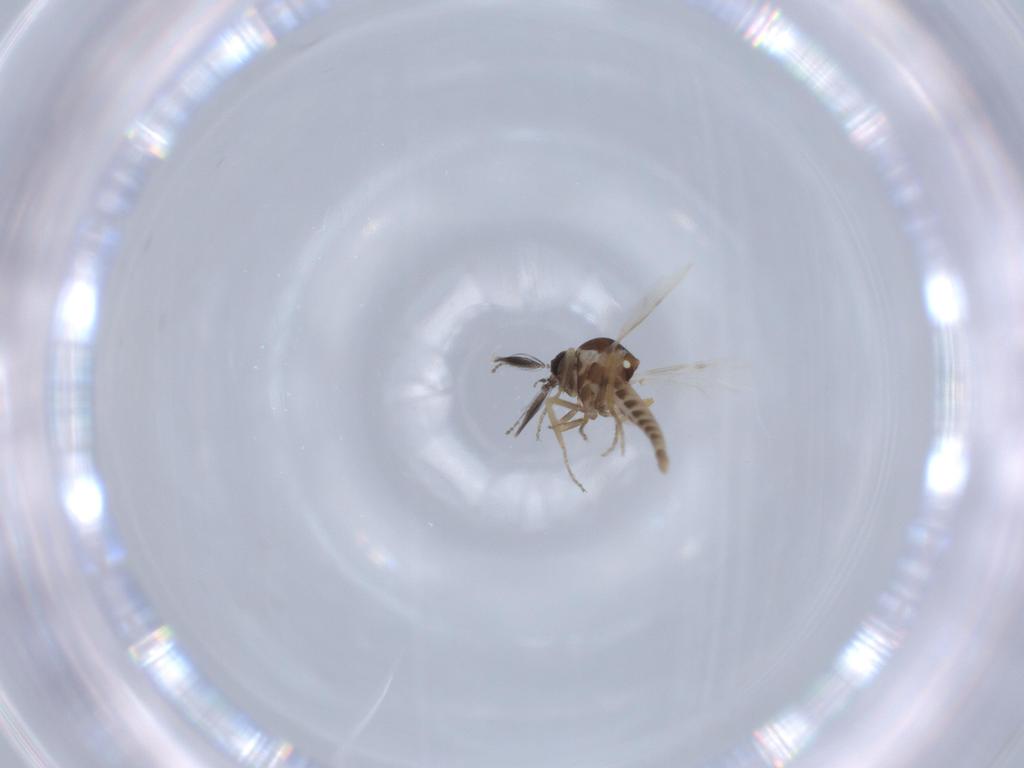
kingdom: Animalia
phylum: Arthropoda
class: Insecta
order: Diptera
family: Ceratopogonidae
